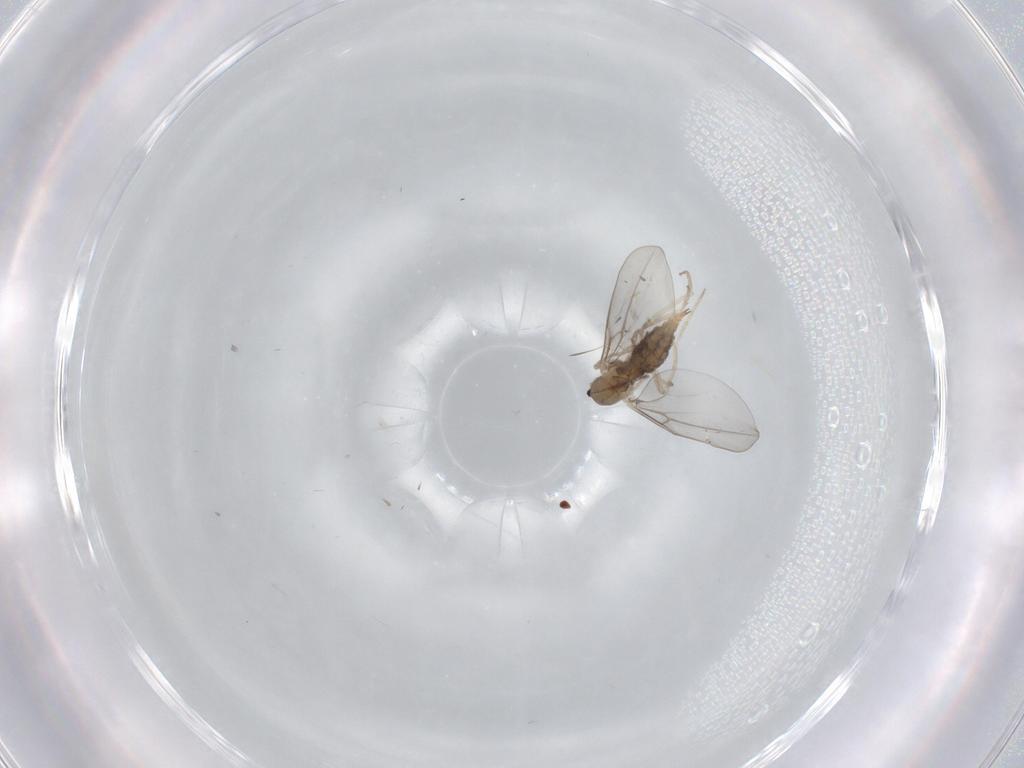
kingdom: Animalia
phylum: Arthropoda
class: Insecta
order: Diptera
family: Cecidomyiidae
